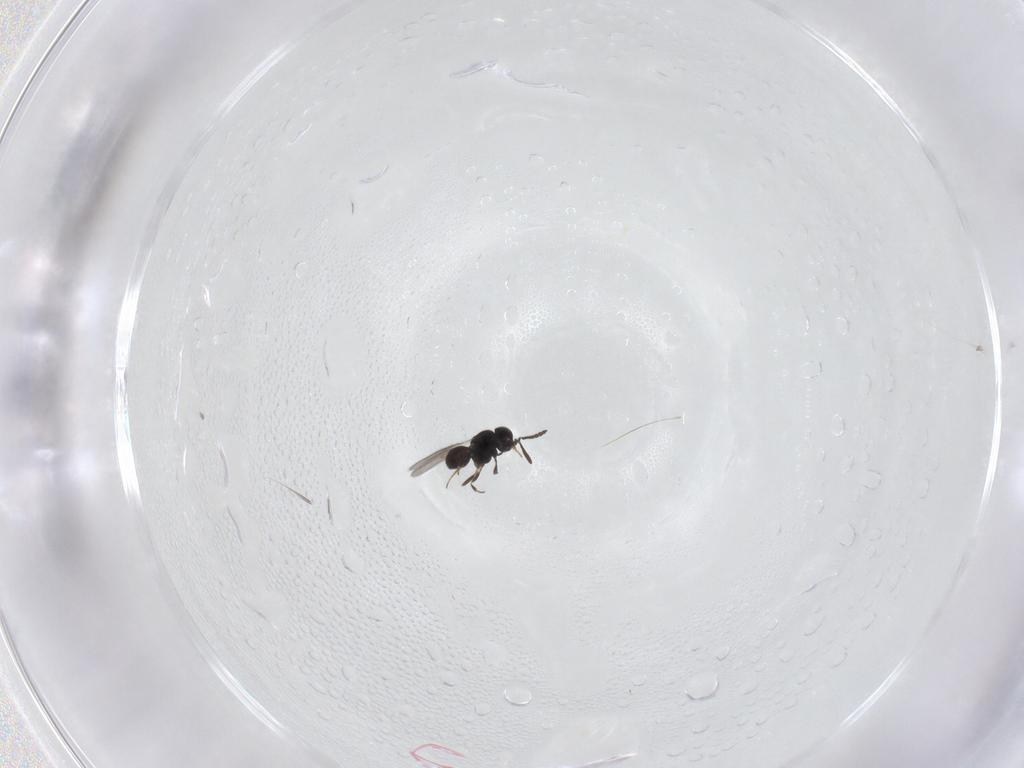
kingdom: Animalia
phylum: Arthropoda
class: Insecta
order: Hymenoptera
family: Scelionidae
